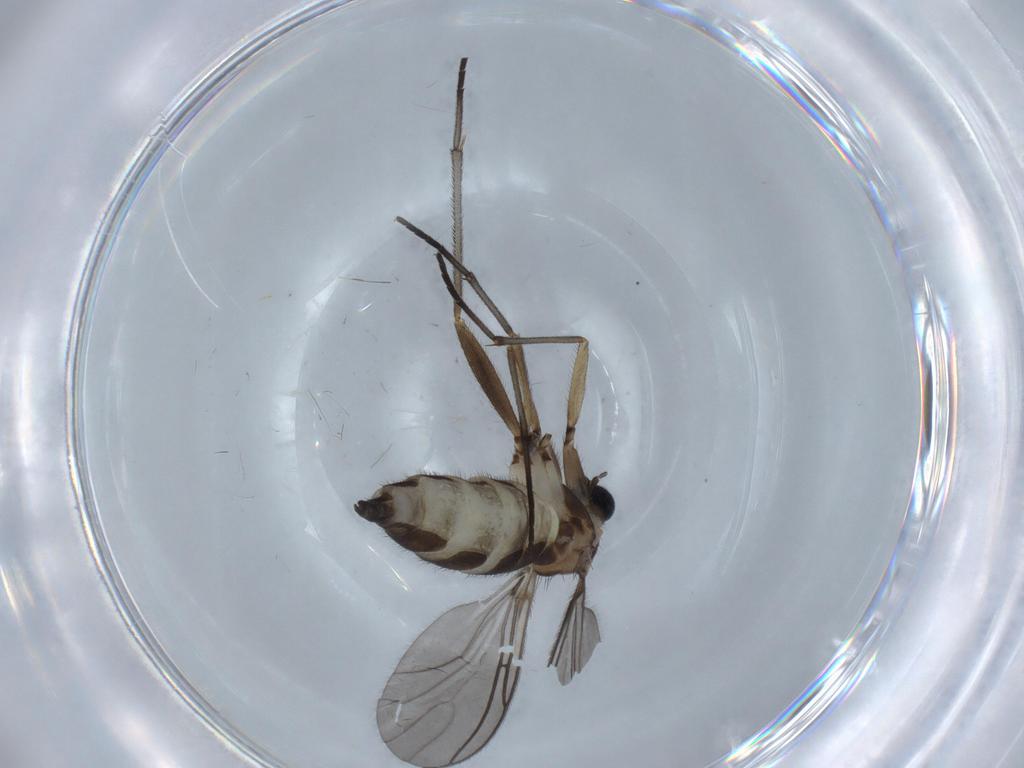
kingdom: Animalia
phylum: Arthropoda
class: Insecta
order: Diptera
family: Sciaridae
